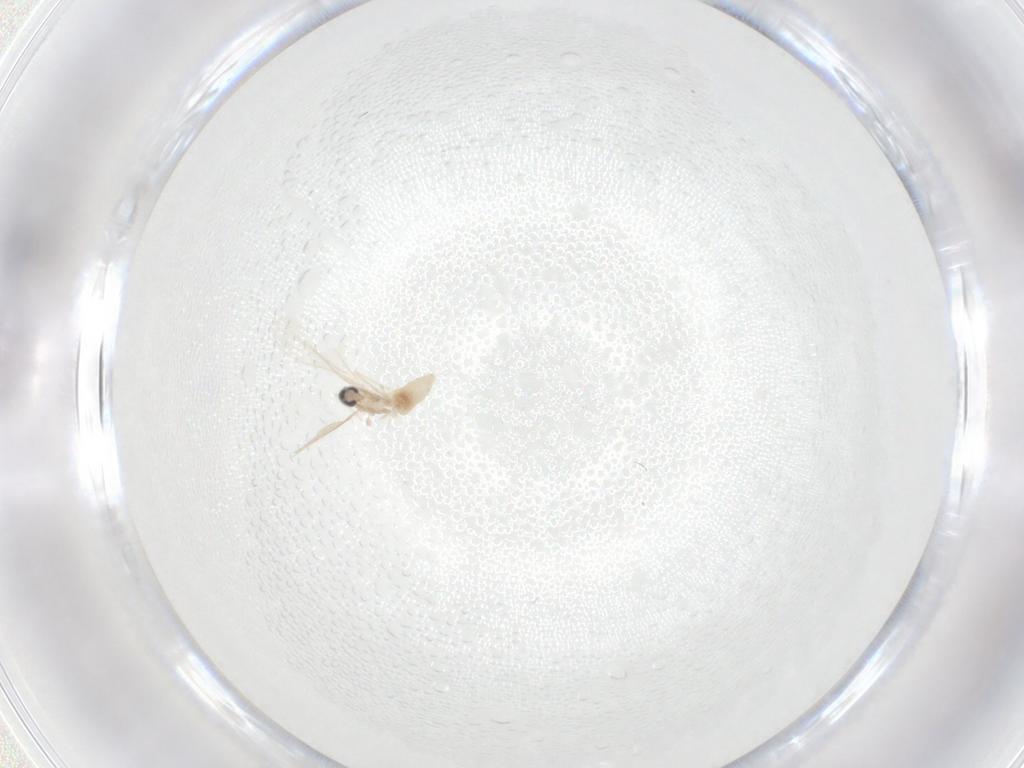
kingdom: Animalia
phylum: Arthropoda
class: Insecta
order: Diptera
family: Cecidomyiidae
